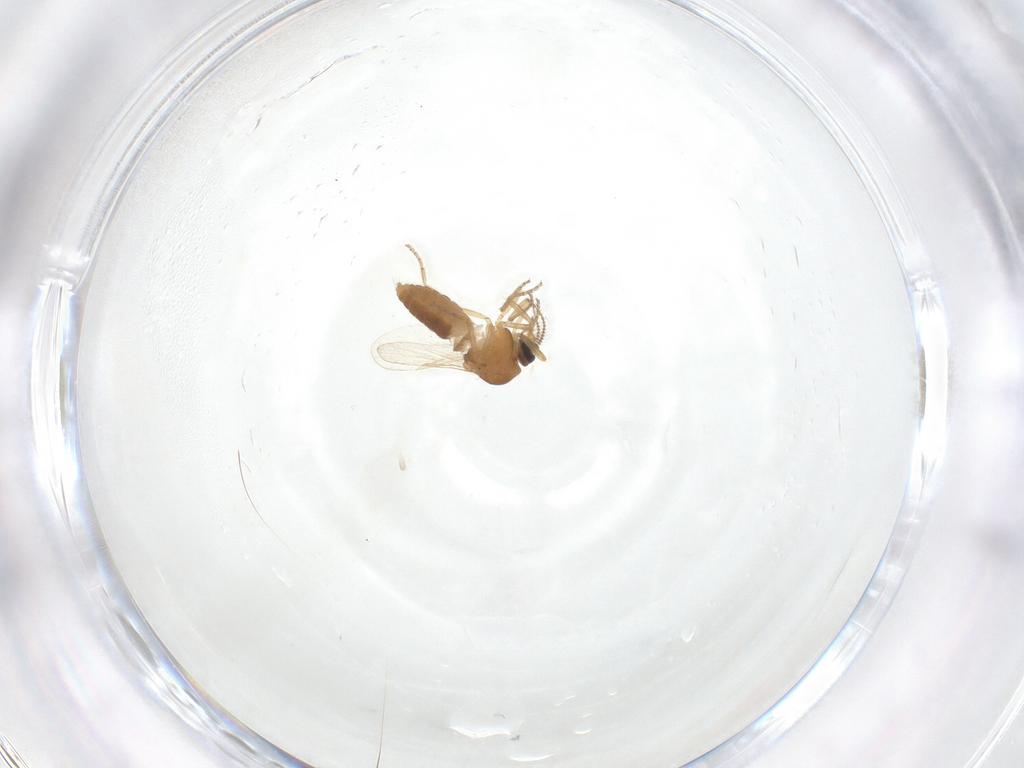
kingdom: Animalia
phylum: Arthropoda
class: Insecta
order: Diptera
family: Ceratopogonidae
